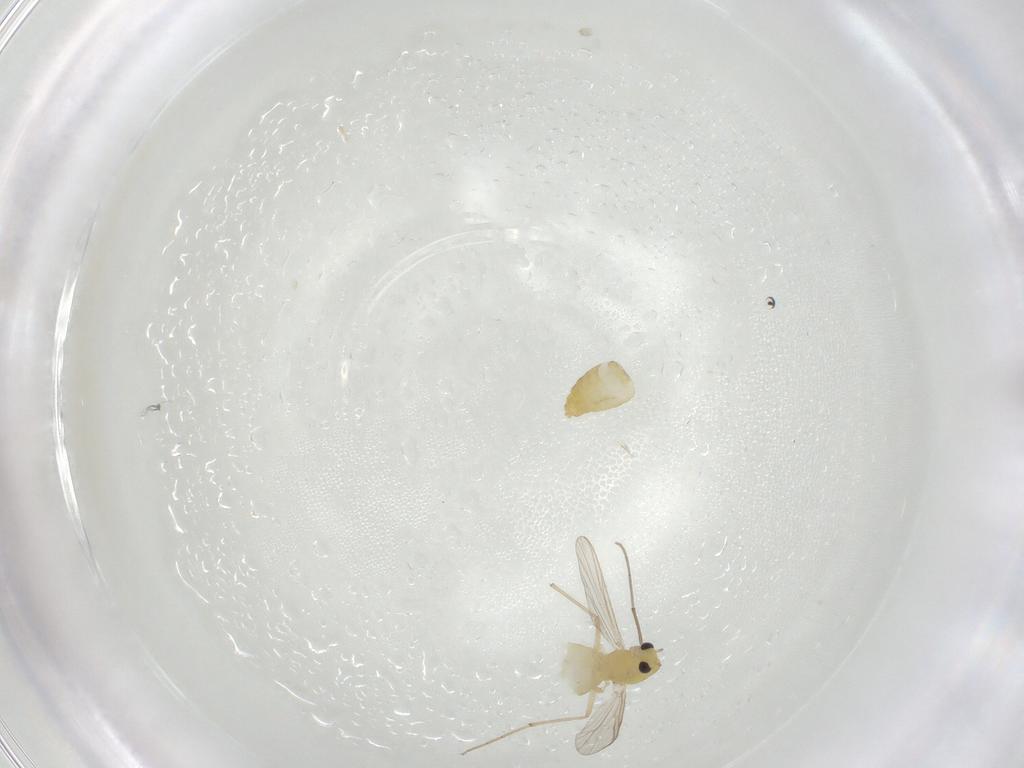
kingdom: Animalia
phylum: Arthropoda
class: Insecta
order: Diptera
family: Chironomidae
